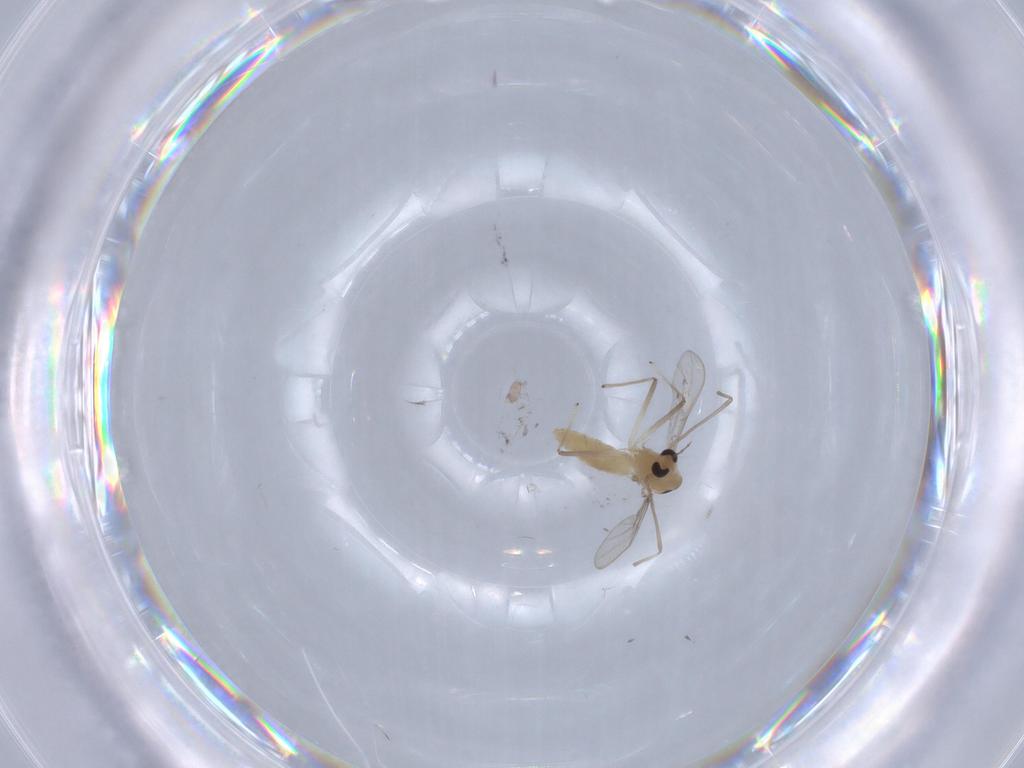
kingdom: Animalia
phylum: Arthropoda
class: Insecta
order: Diptera
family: Chironomidae
